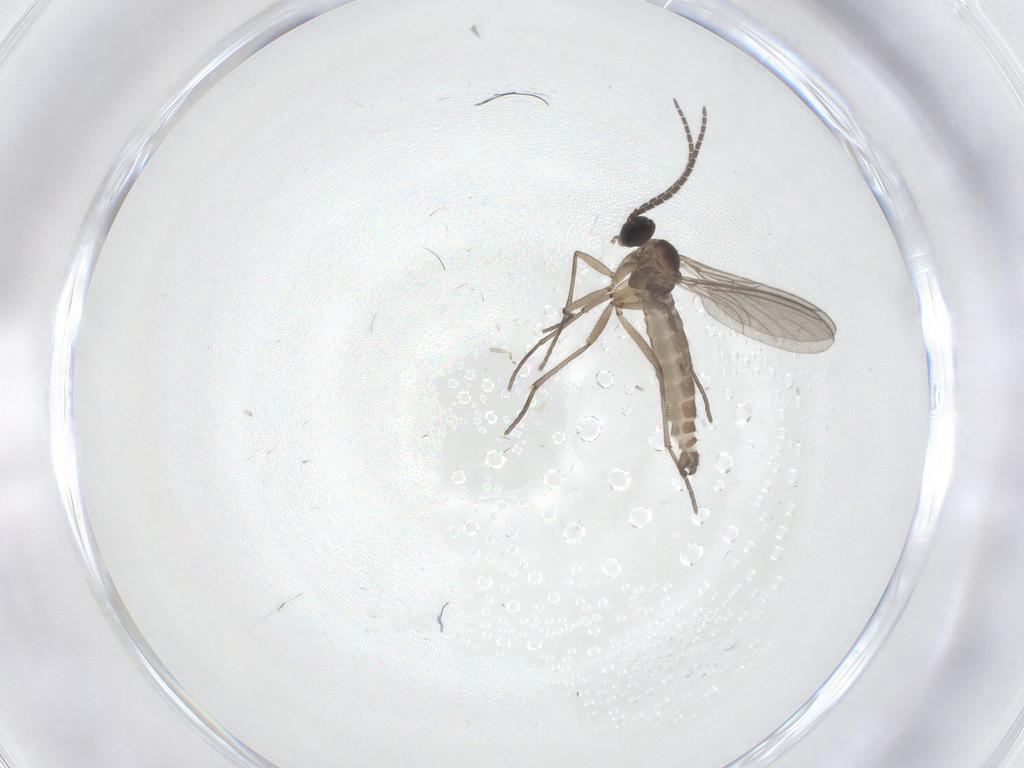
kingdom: Animalia
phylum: Arthropoda
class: Insecta
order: Diptera
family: Sciaridae
